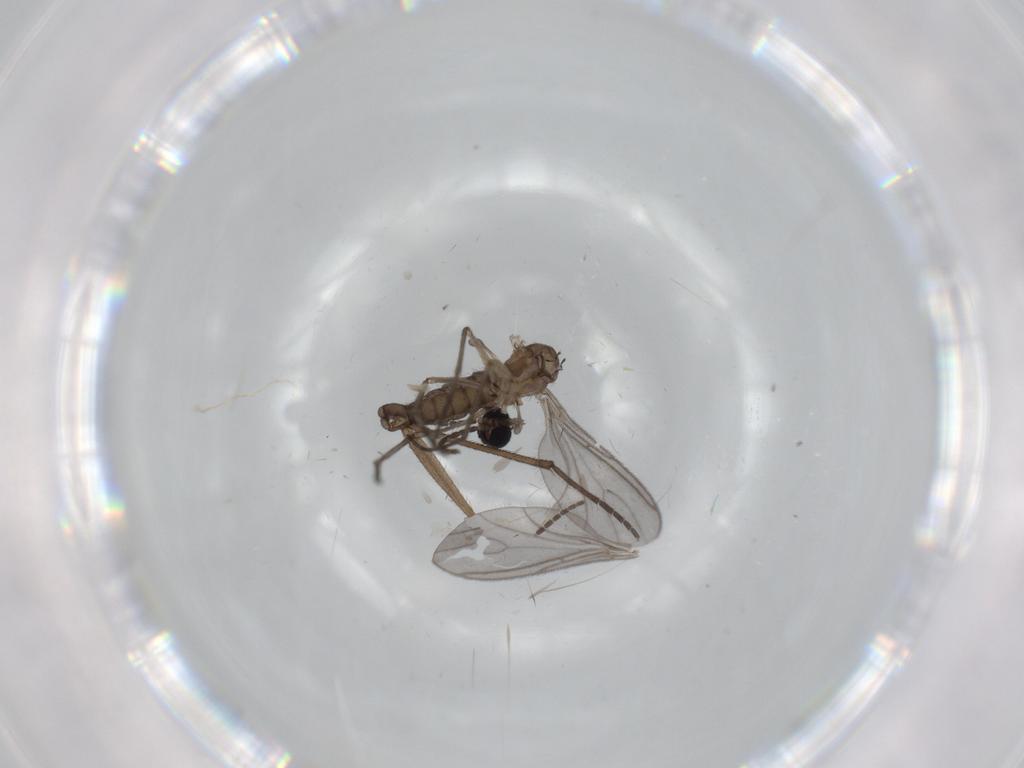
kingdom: Animalia
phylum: Arthropoda
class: Insecta
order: Diptera
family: Sciaridae
